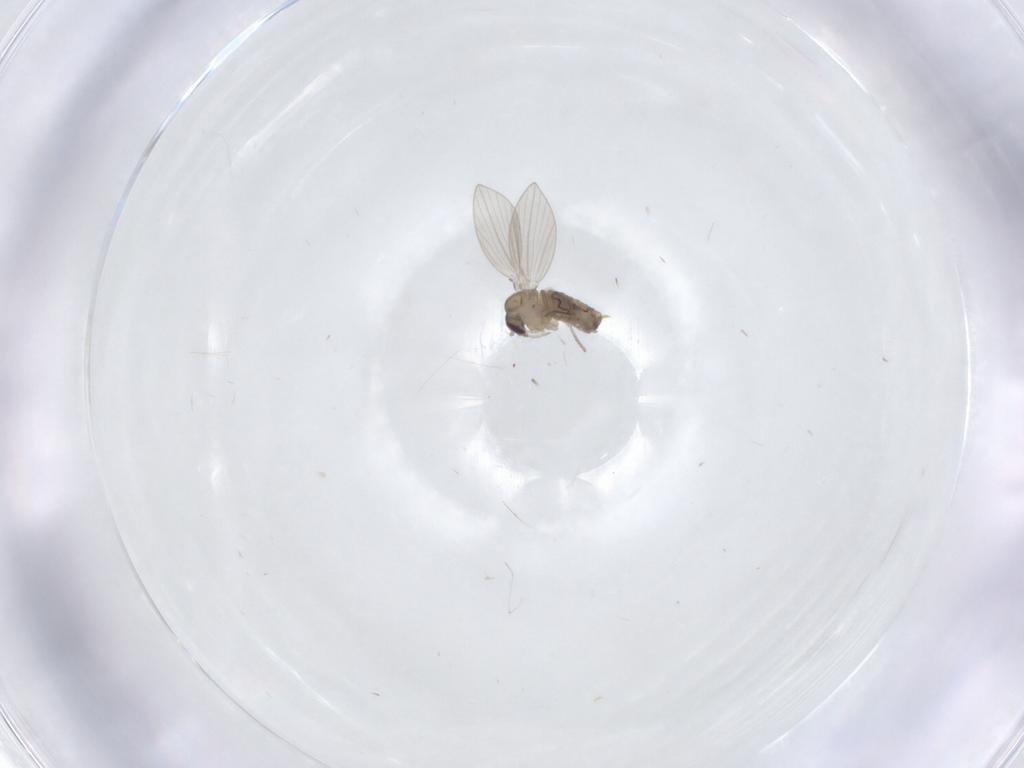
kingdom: Animalia
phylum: Arthropoda
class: Insecta
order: Diptera
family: Psychodidae
